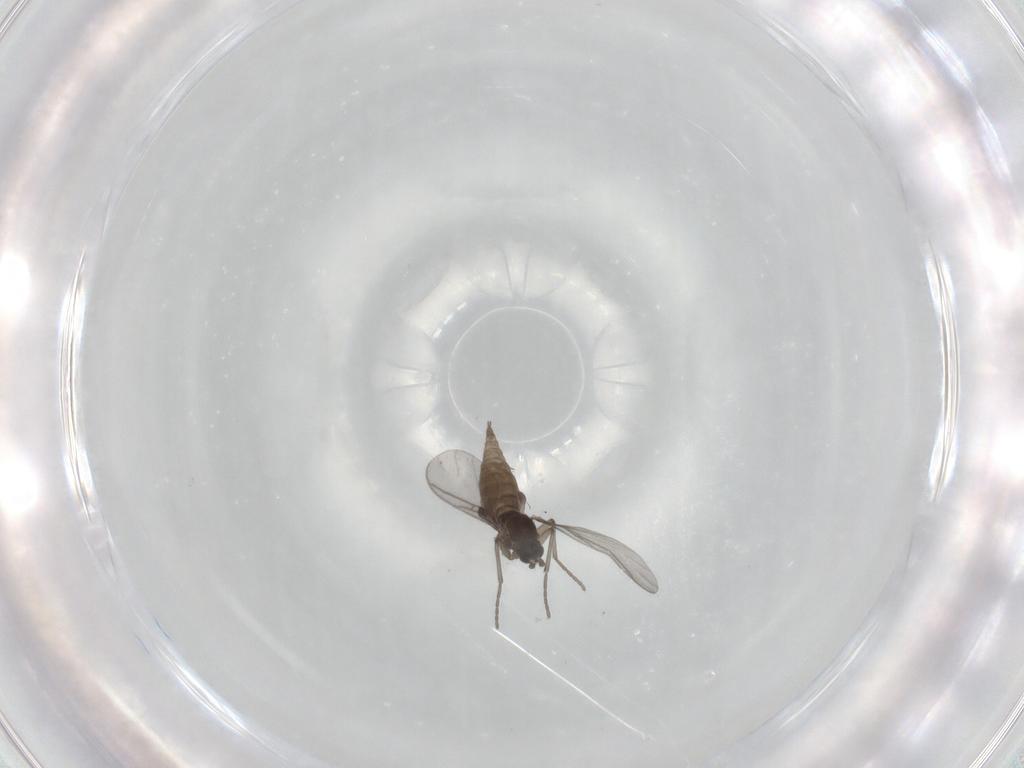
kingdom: Animalia
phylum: Arthropoda
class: Insecta
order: Diptera
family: Sciaridae
